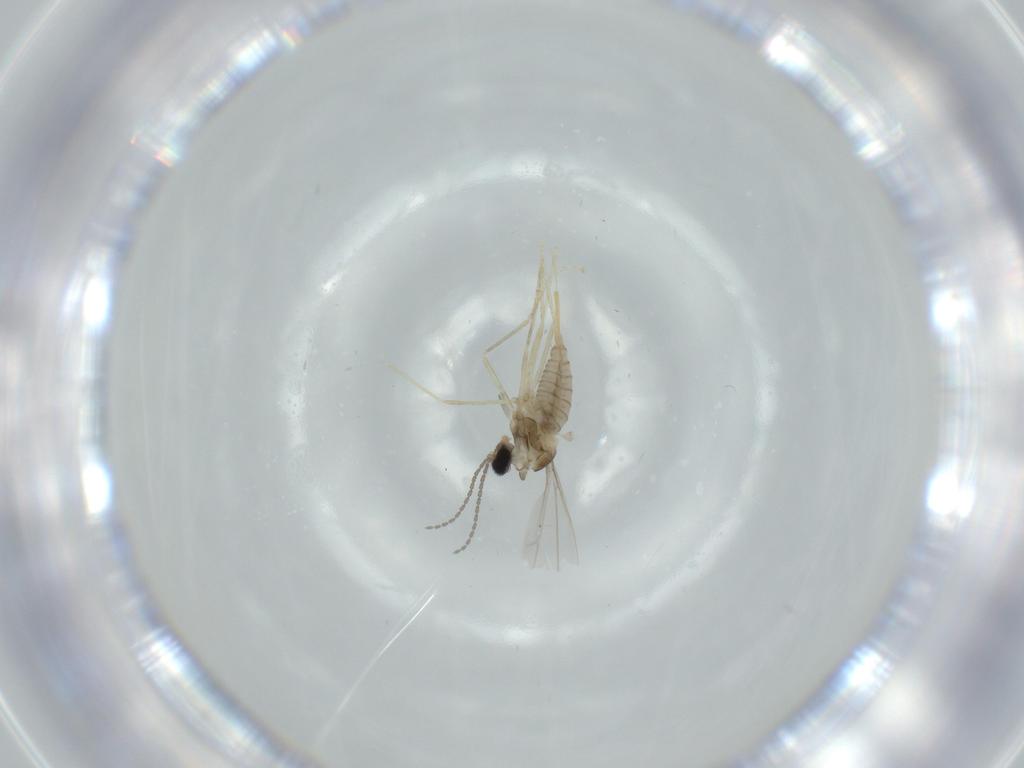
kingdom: Animalia
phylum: Arthropoda
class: Insecta
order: Diptera
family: Cecidomyiidae
